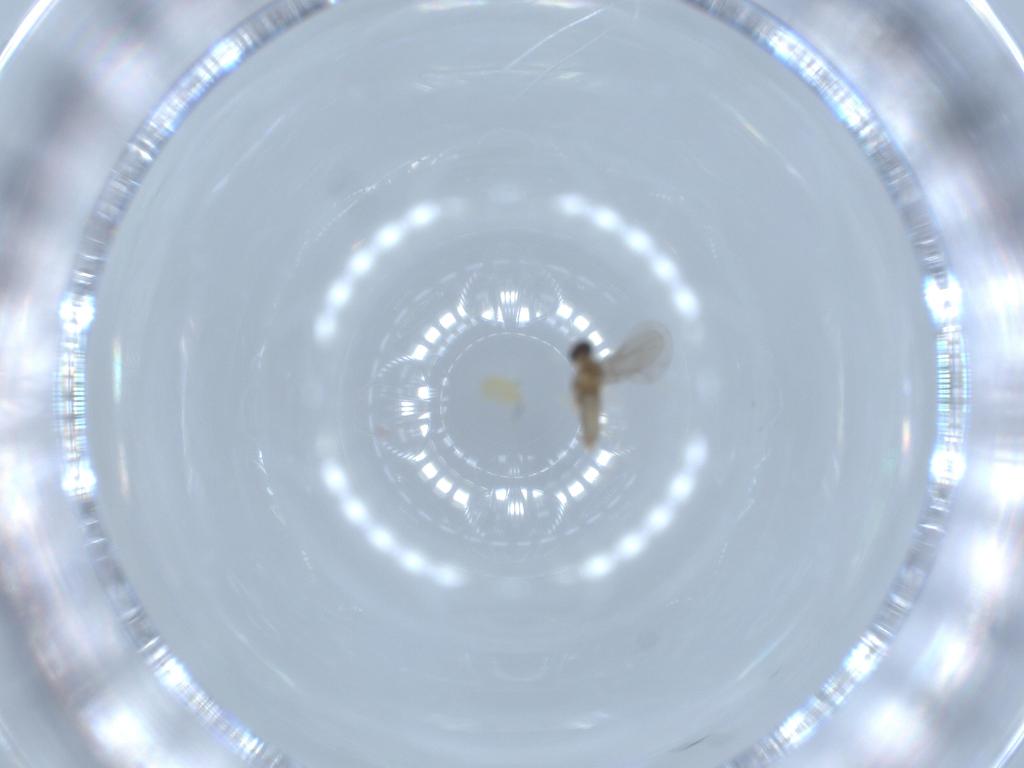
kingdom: Animalia
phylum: Arthropoda
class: Insecta
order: Diptera
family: Cecidomyiidae
